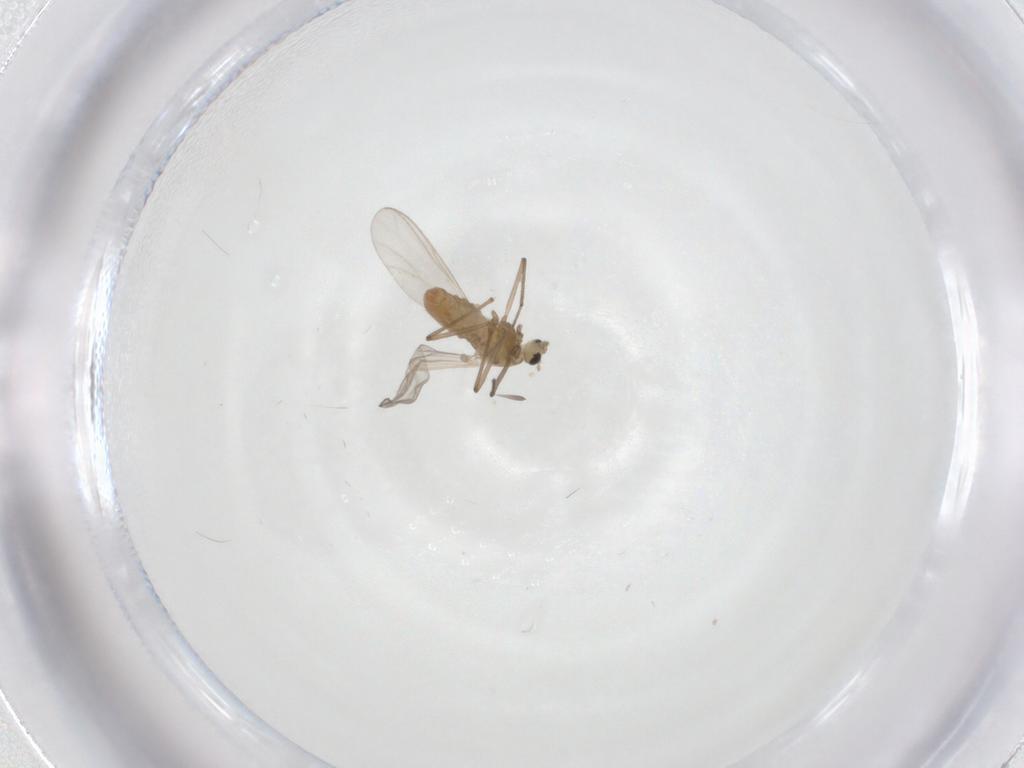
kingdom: Animalia
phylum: Arthropoda
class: Insecta
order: Diptera
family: Chironomidae
